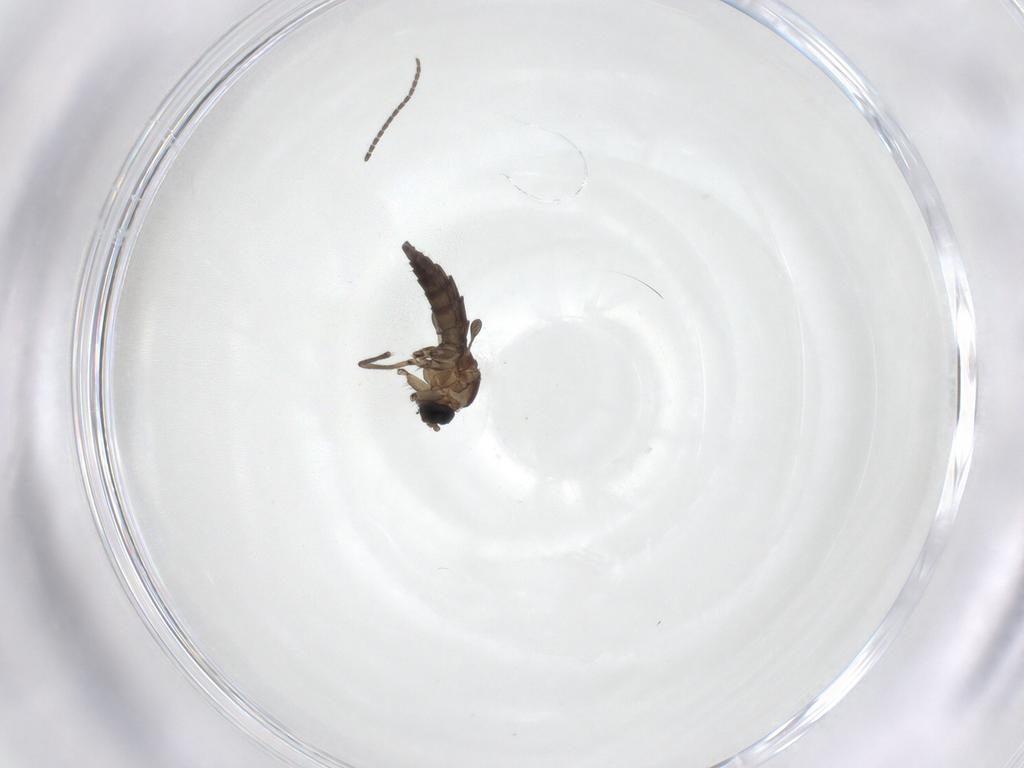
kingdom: Animalia
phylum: Arthropoda
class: Insecta
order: Diptera
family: Sciaridae
